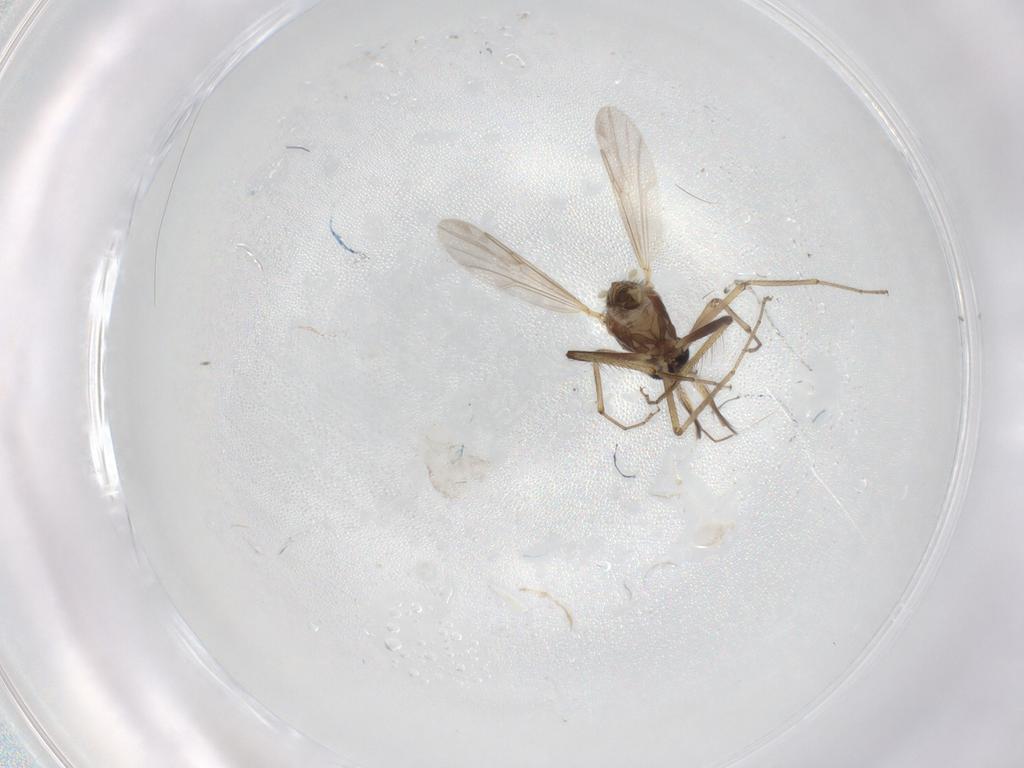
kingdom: Animalia
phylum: Arthropoda
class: Insecta
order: Diptera
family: Ceratopogonidae
